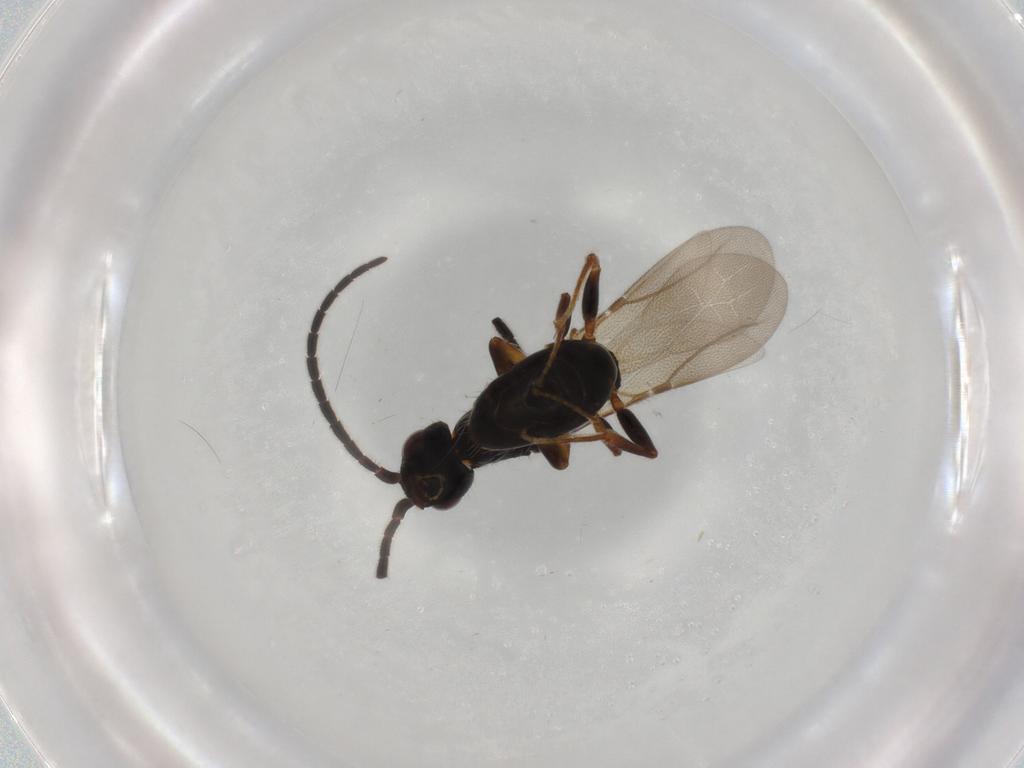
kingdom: Animalia
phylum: Arthropoda
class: Insecta
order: Hymenoptera
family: Bethylidae
